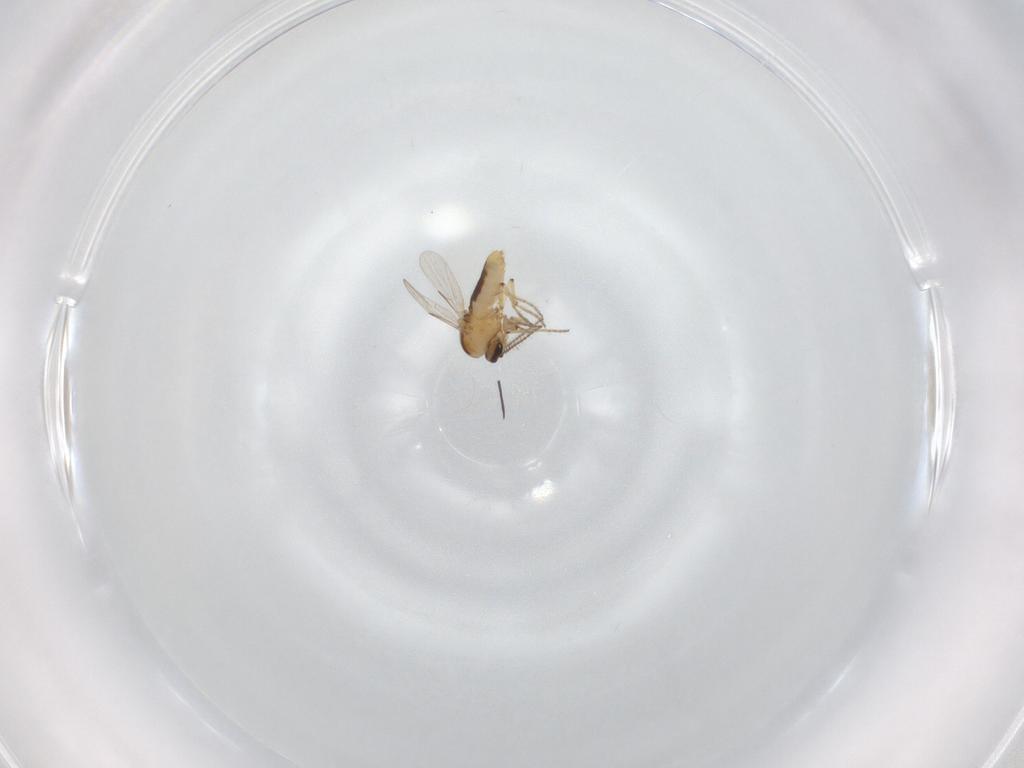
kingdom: Animalia
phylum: Arthropoda
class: Insecta
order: Diptera
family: Ceratopogonidae
